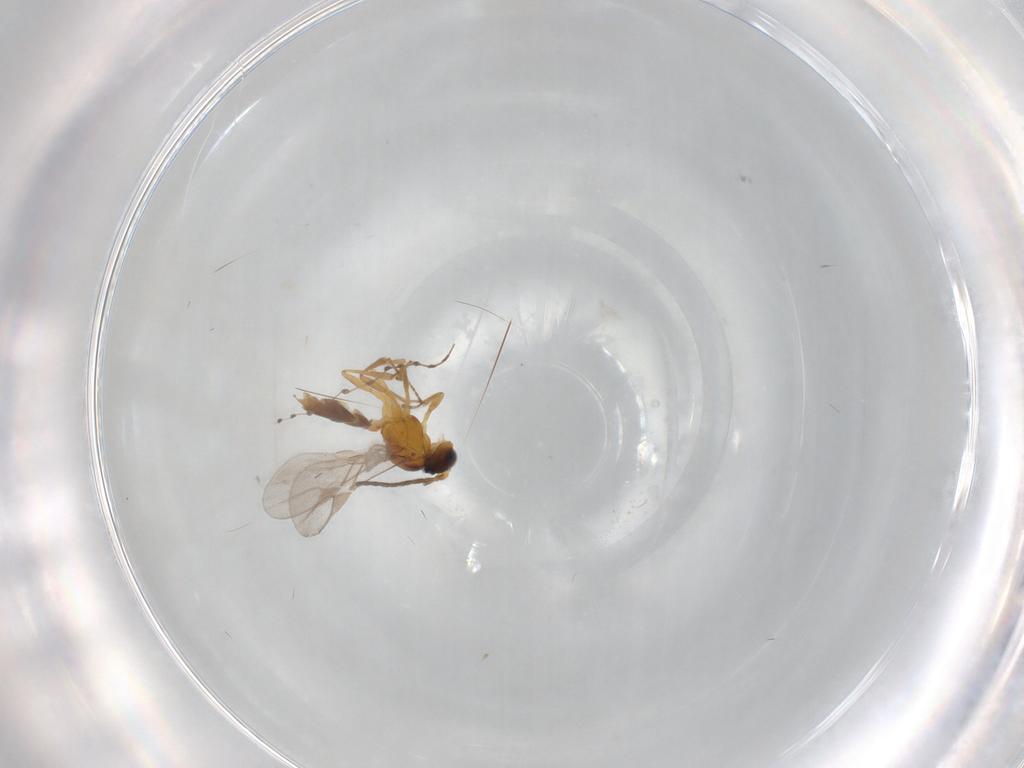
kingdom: Animalia
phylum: Arthropoda
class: Insecta
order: Hymenoptera
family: Braconidae
